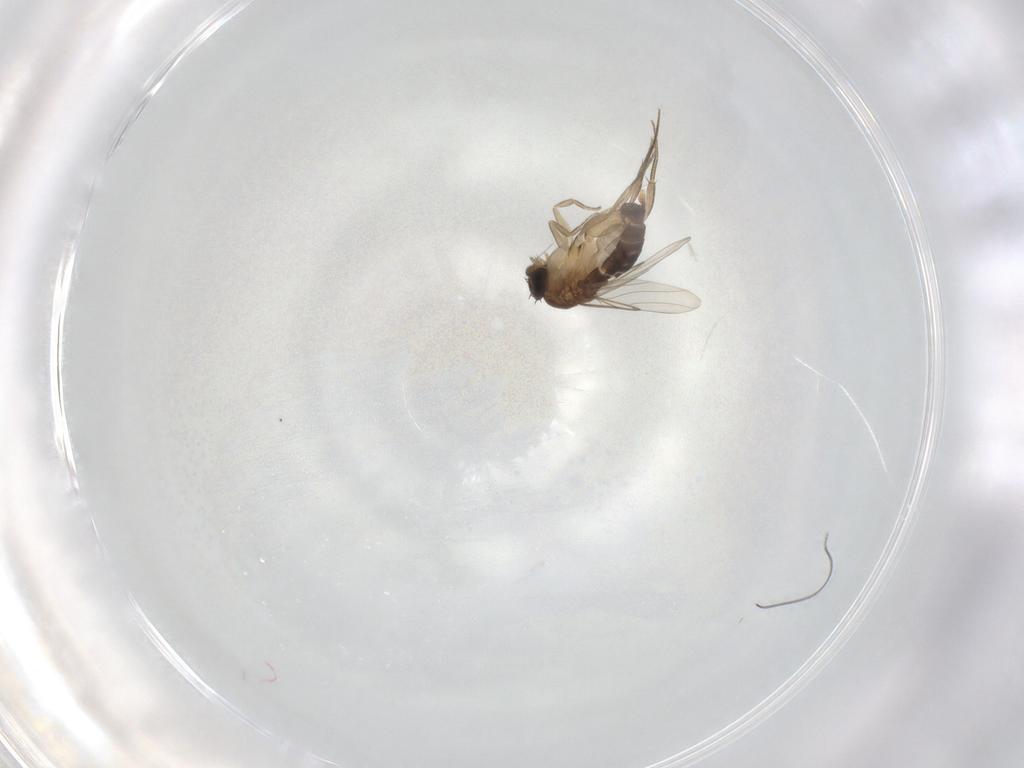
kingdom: Animalia
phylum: Arthropoda
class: Insecta
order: Diptera
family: Phoridae
